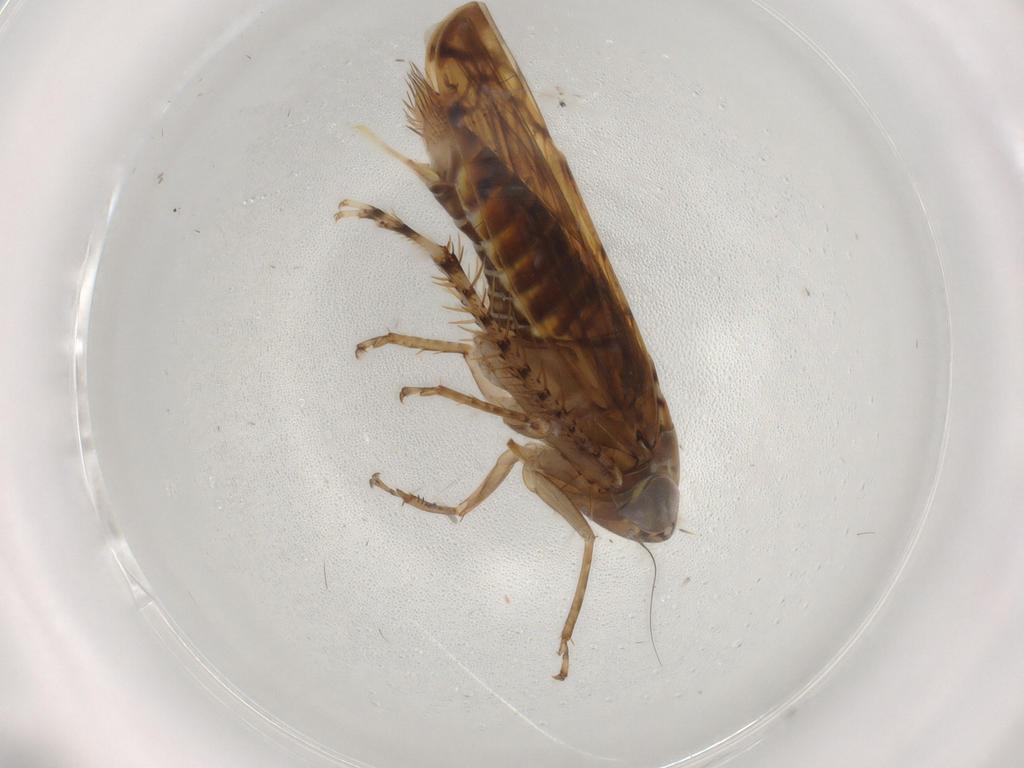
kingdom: Animalia
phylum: Arthropoda
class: Insecta
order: Hemiptera
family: Cicadellidae
